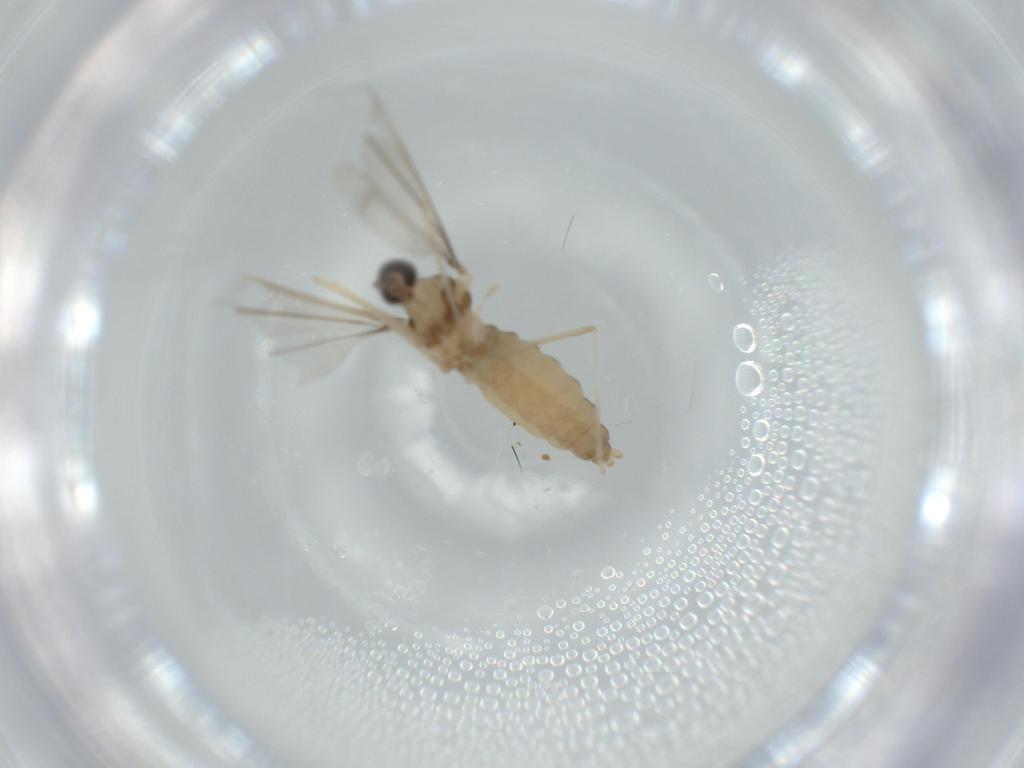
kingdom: Animalia
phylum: Arthropoda
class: Insecta
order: Diptera
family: Cecidomyiidae
